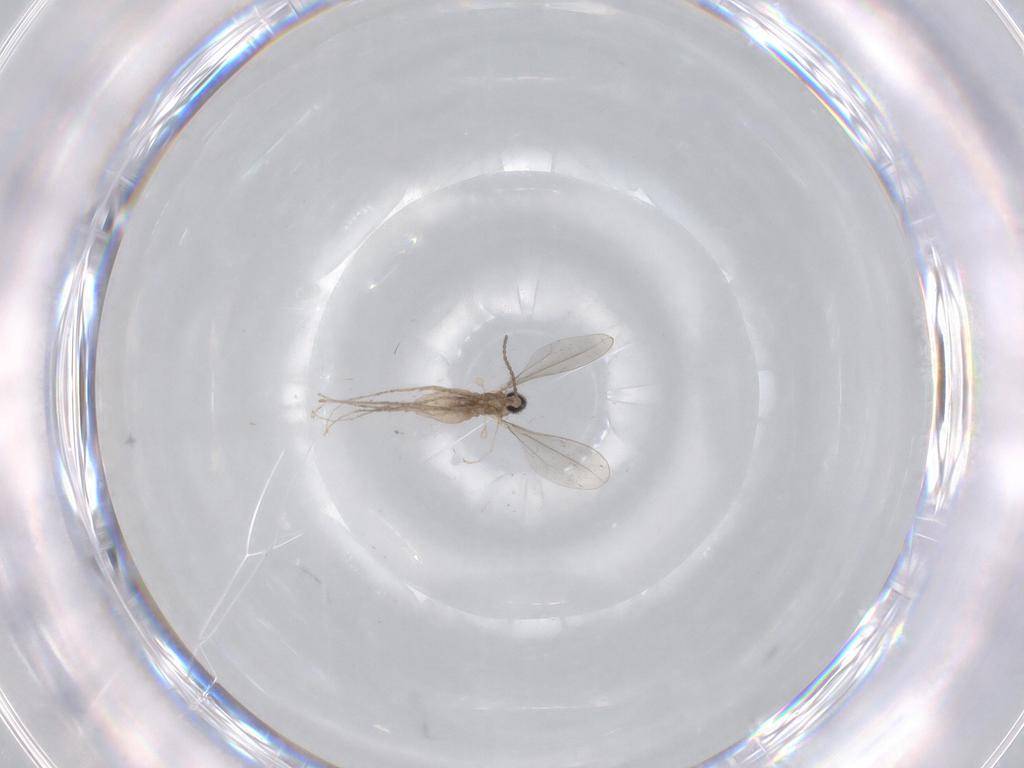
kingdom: Animalia
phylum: Arthropoda
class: Insecta
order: Diptera
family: Cecidomyiidae
